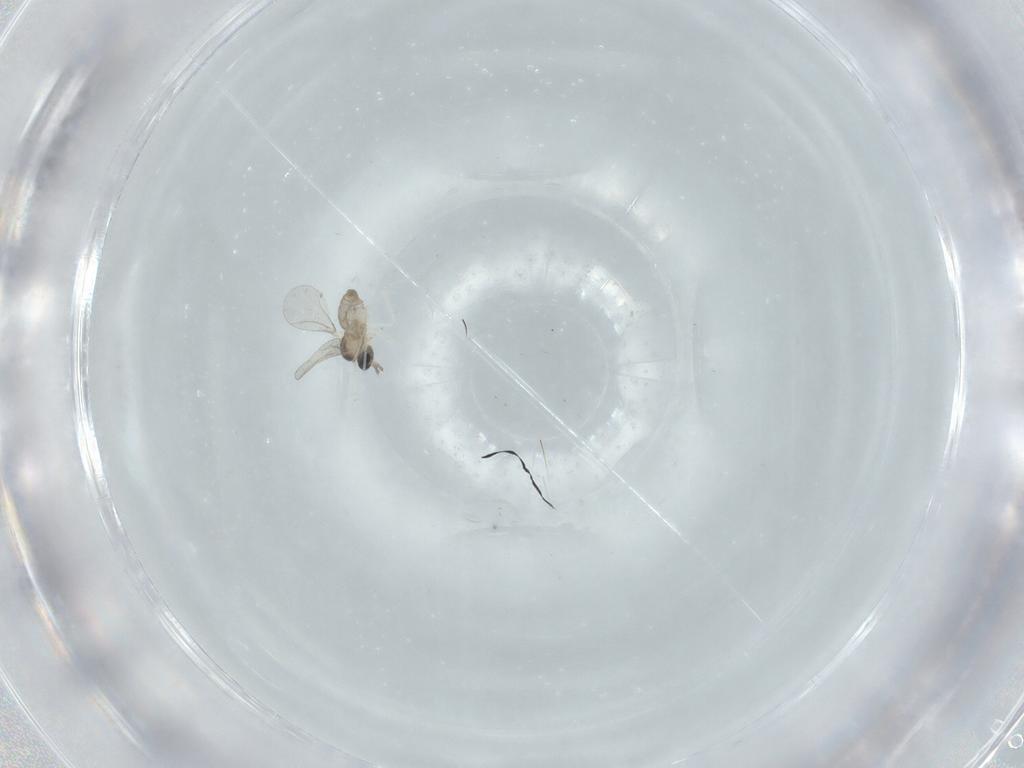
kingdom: Animalia
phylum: Arthropoda
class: Insecta
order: Diptera
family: Cecidomyiidae
